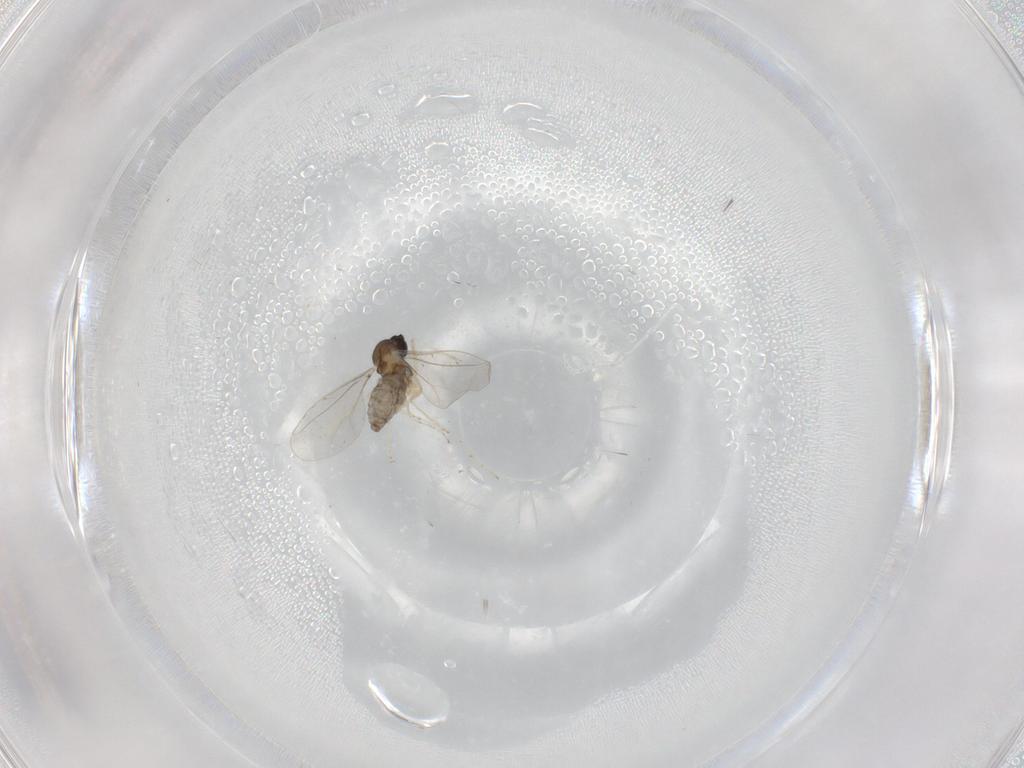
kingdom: Animalia
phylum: Arthropoda
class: Insecta
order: Diptera
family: Cecidomyiidae
